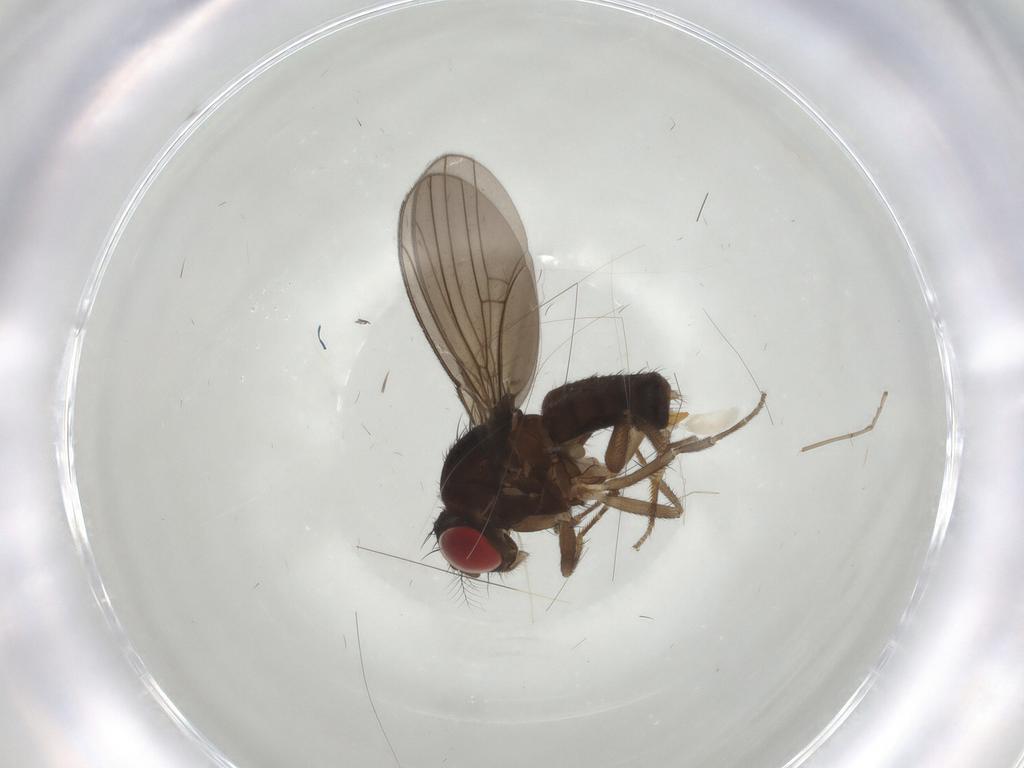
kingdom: Animalia
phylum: Arthropoda
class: Insecta
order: Diptera
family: Drosophilidae
